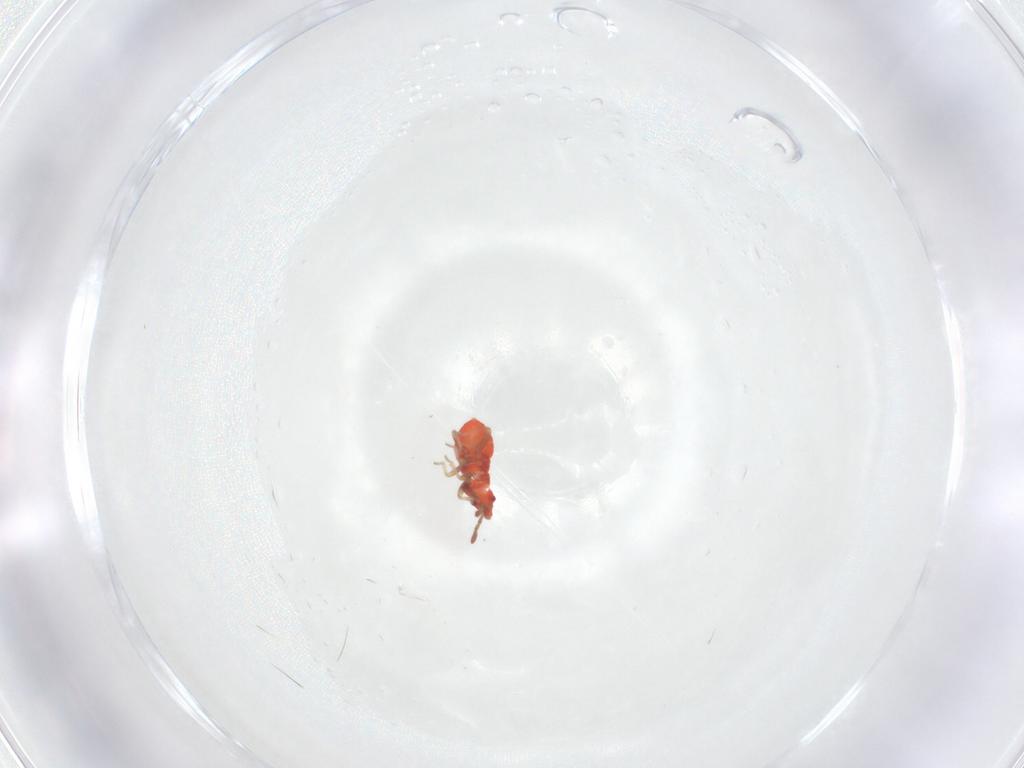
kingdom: Animalia
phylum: Arthropoda
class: Insecta
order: Hemiptera
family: Microphysidae
